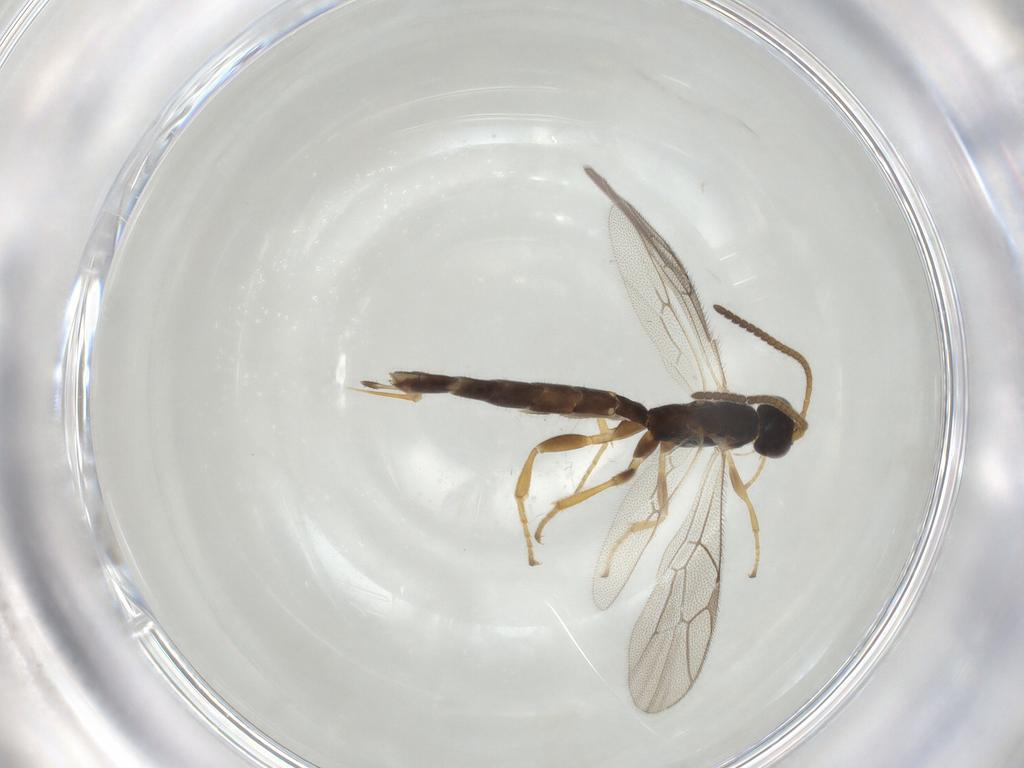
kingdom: Animalia
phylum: Arthropoda
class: Insecta
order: Hymenoptera
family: Ichneumonidae
